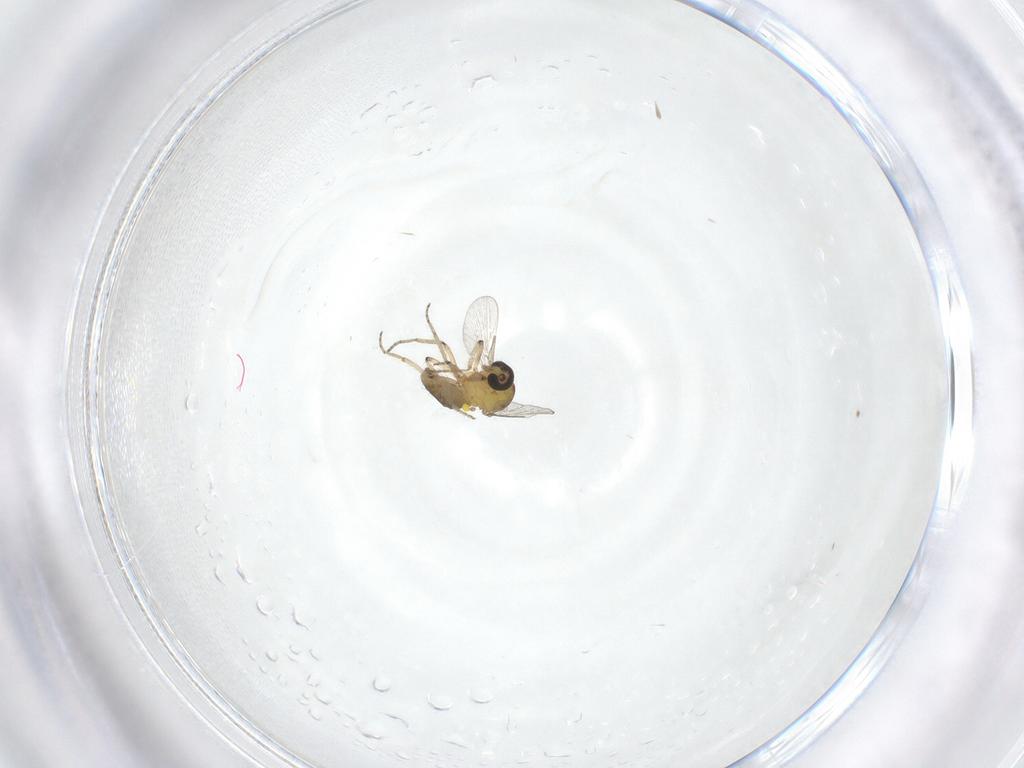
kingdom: Animalia
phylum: Arthropoda
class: Insecta
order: Diptera
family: Ceratopogonidae
